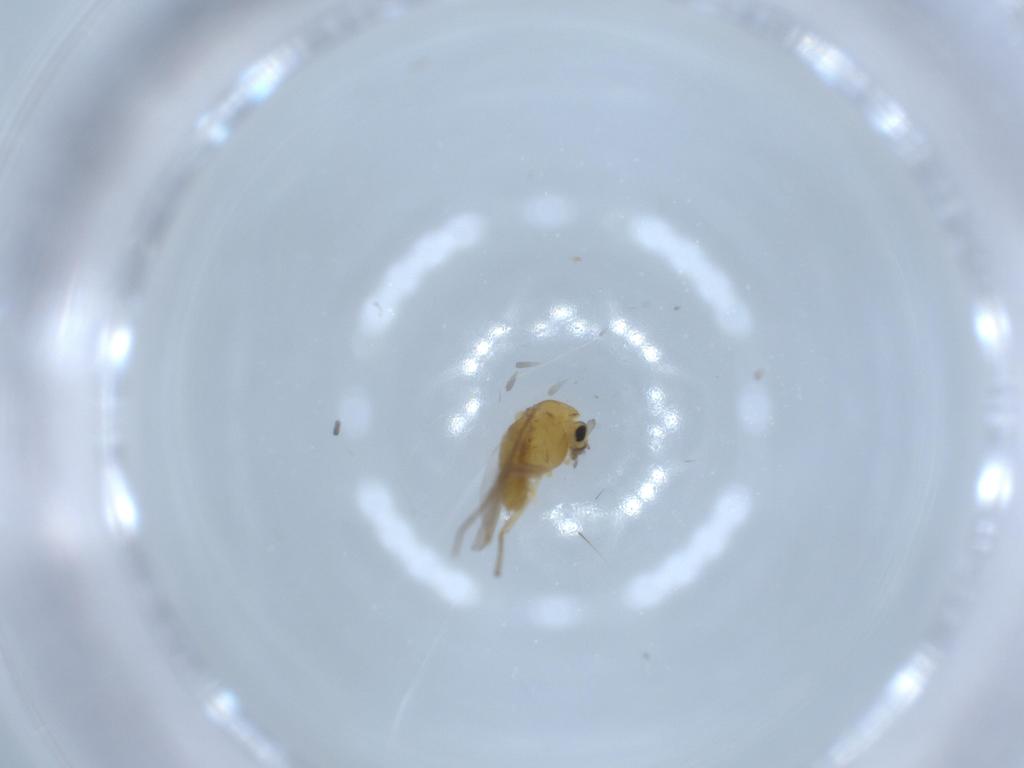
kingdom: Animalia
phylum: Arthropoda
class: Insecta
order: Diptera
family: Chironomidae
